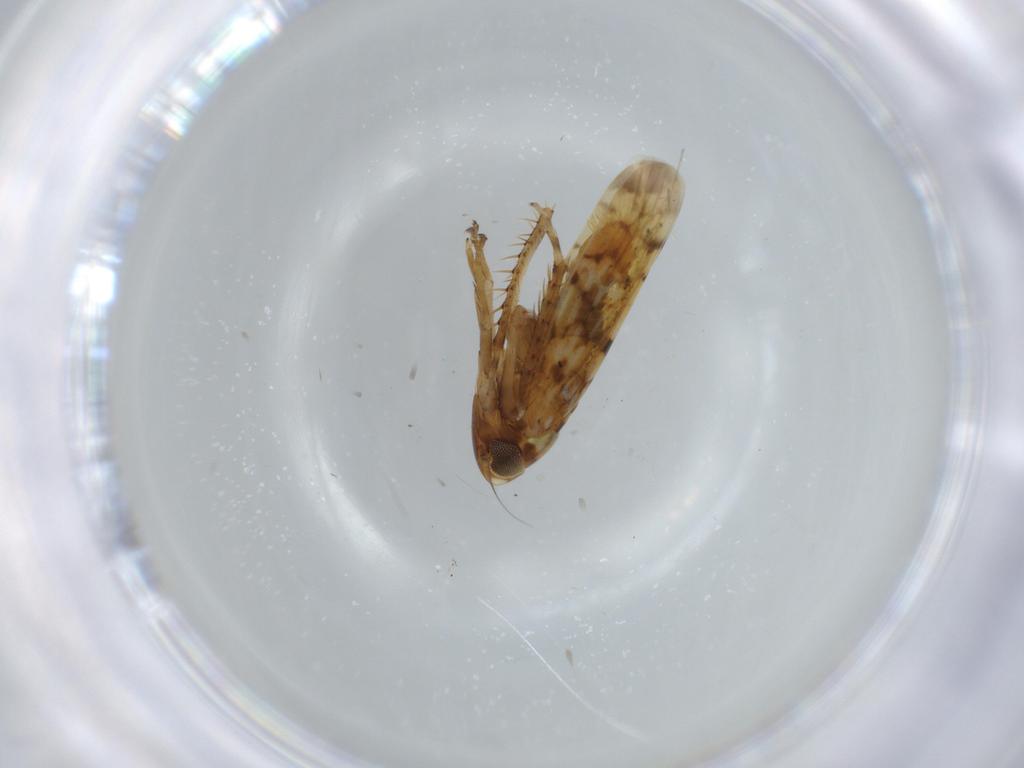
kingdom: Animalia
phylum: Arthropoda
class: Insecta
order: Hemiptera
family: Cicadellidae
